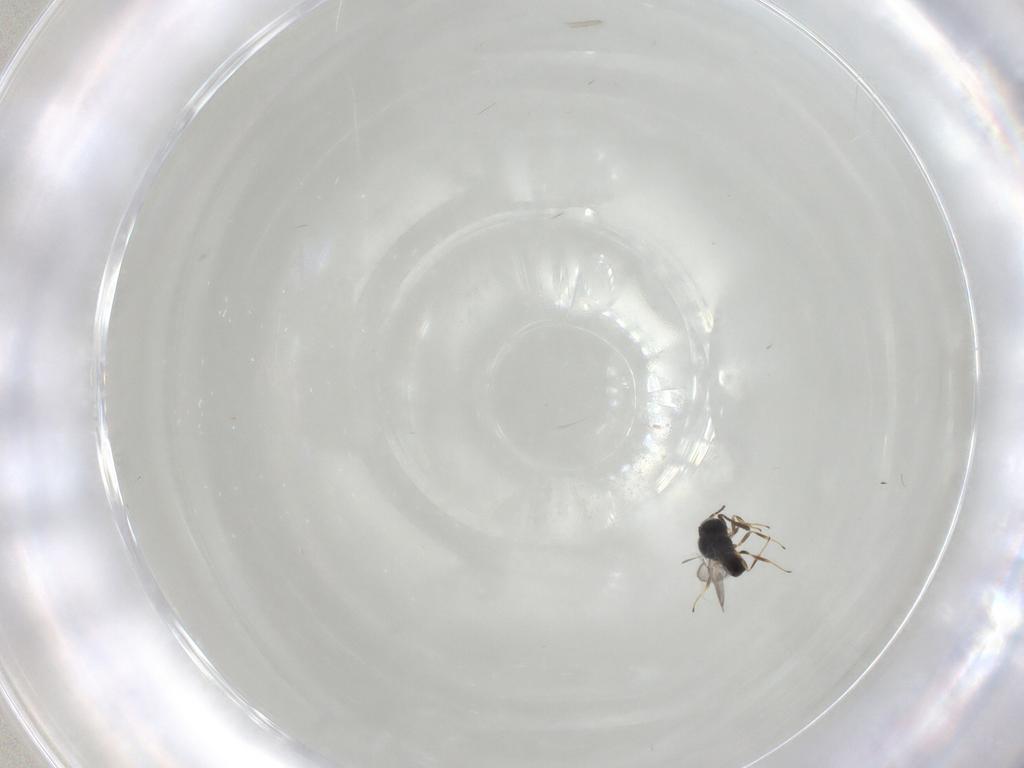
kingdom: Animalia
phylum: Arthropoda
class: Insecta
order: Hymenoptera
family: Scelionidae
